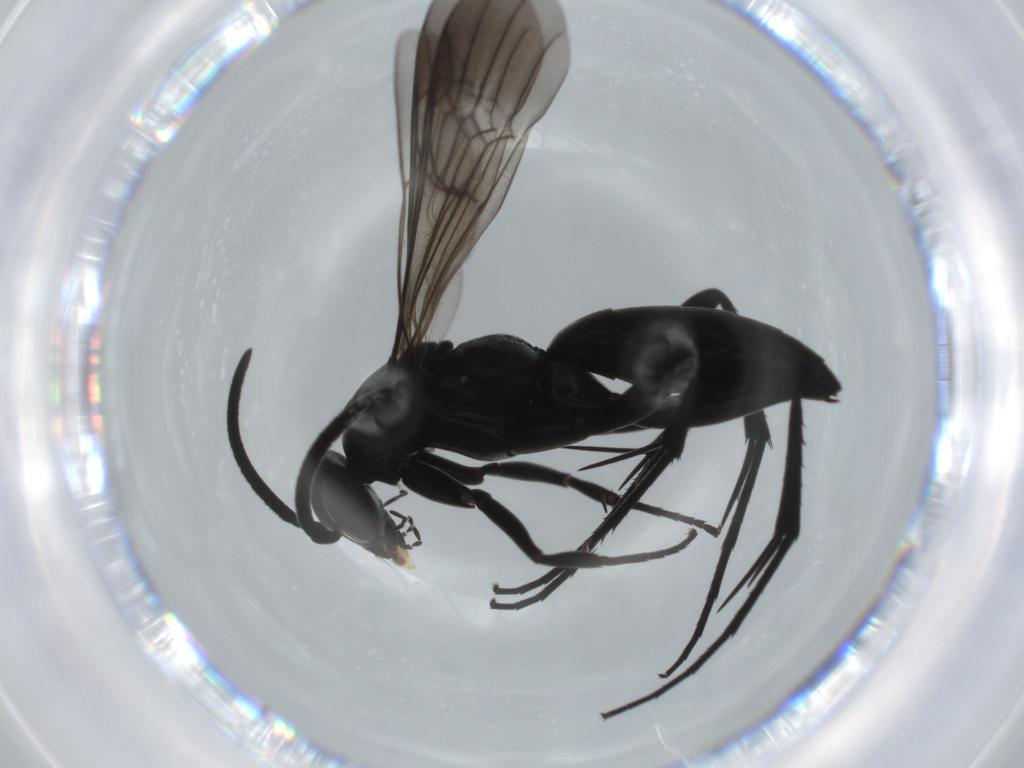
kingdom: Animalia
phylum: Arthropoda
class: Insecta
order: Hymenoptera
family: Pompilidae
